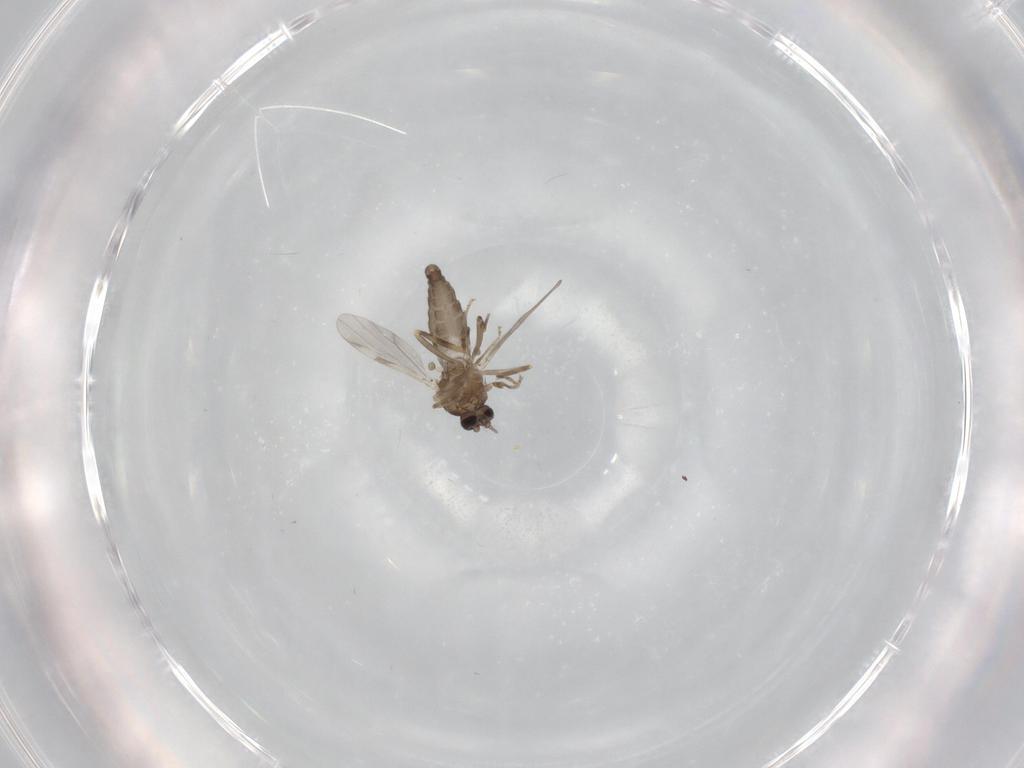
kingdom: Animalia
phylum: Arthropoda
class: Insecta
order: Diptera
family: Ceratopogonidae
